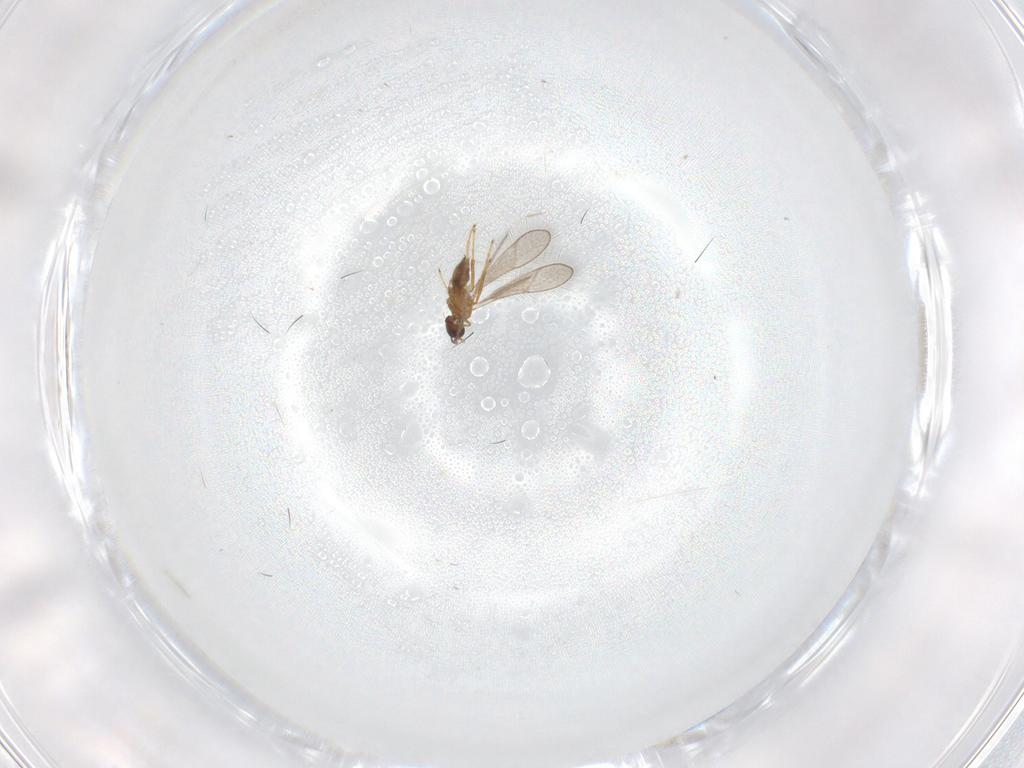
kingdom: Animalia
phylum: Arthropoda
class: Insecta
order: Hymenoptera
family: Mymaridae
